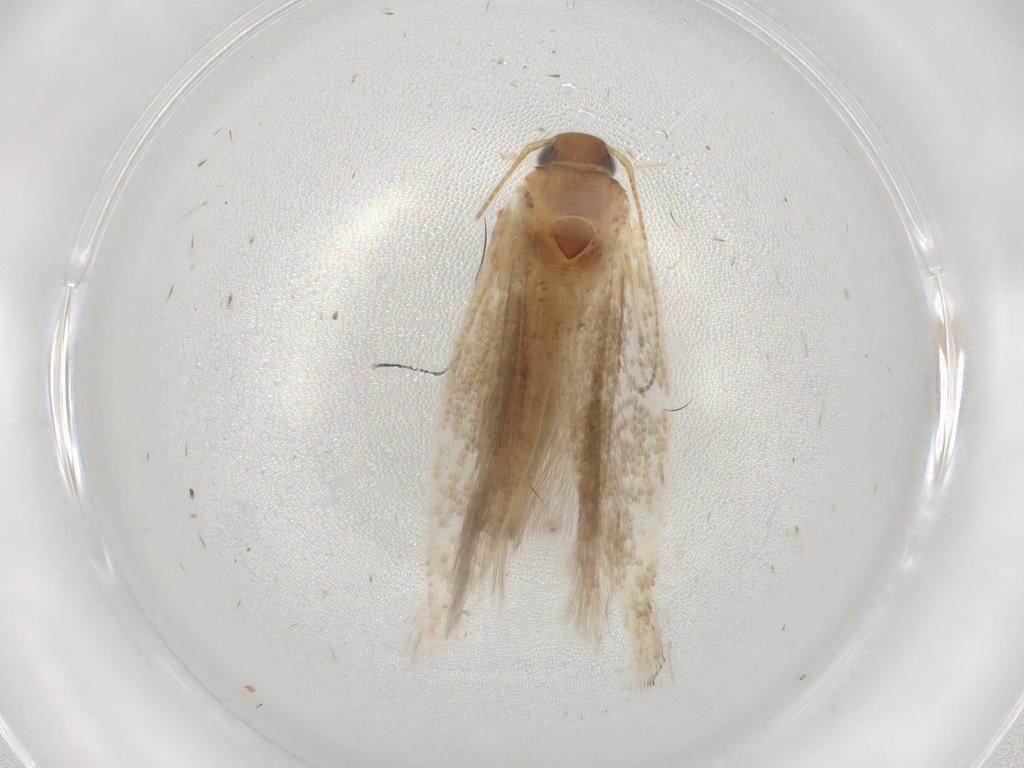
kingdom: Animalia
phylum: Arthropoda
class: Insecta
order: Lepidoptera
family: Gelechiidae
